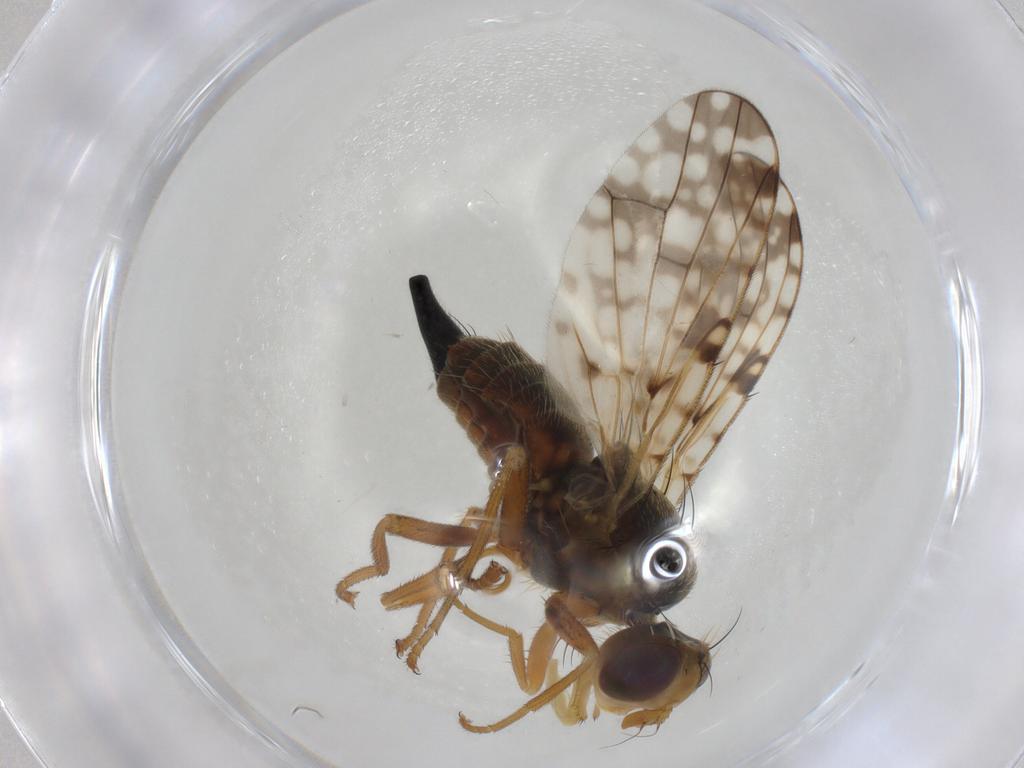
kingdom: Animalia
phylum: Arthropoda
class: Insecta
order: Diptera
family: Tephritidae
